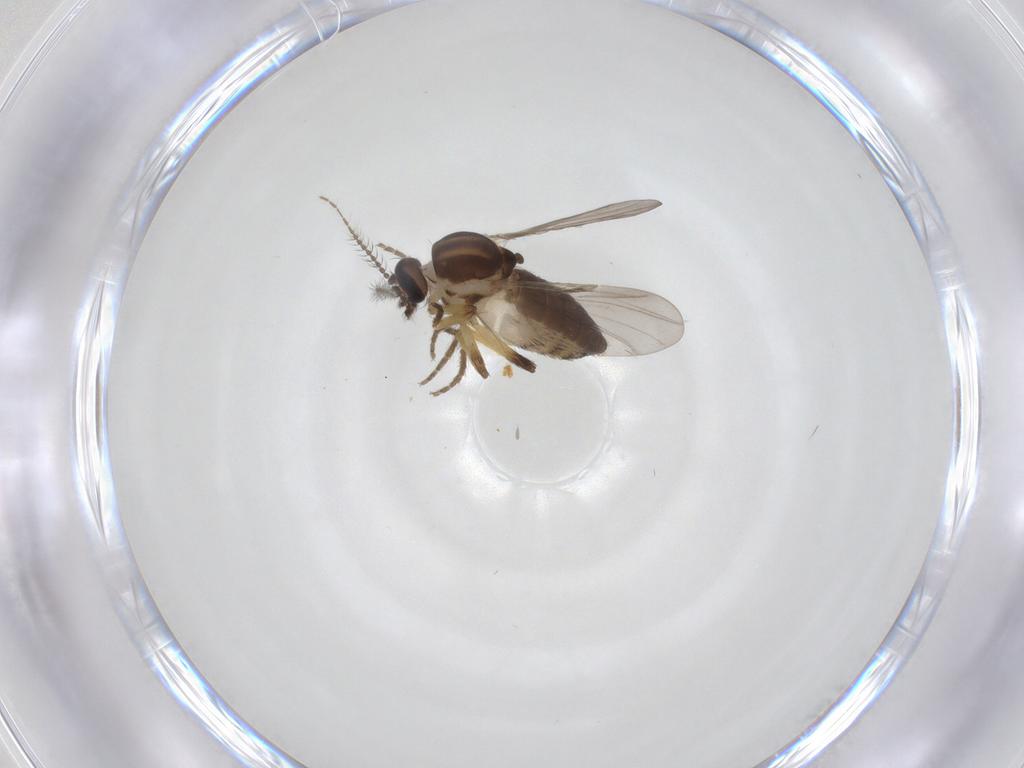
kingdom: Animalia
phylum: Arthropoda
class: Insecta
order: Diptera
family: Ceratopogonidae
